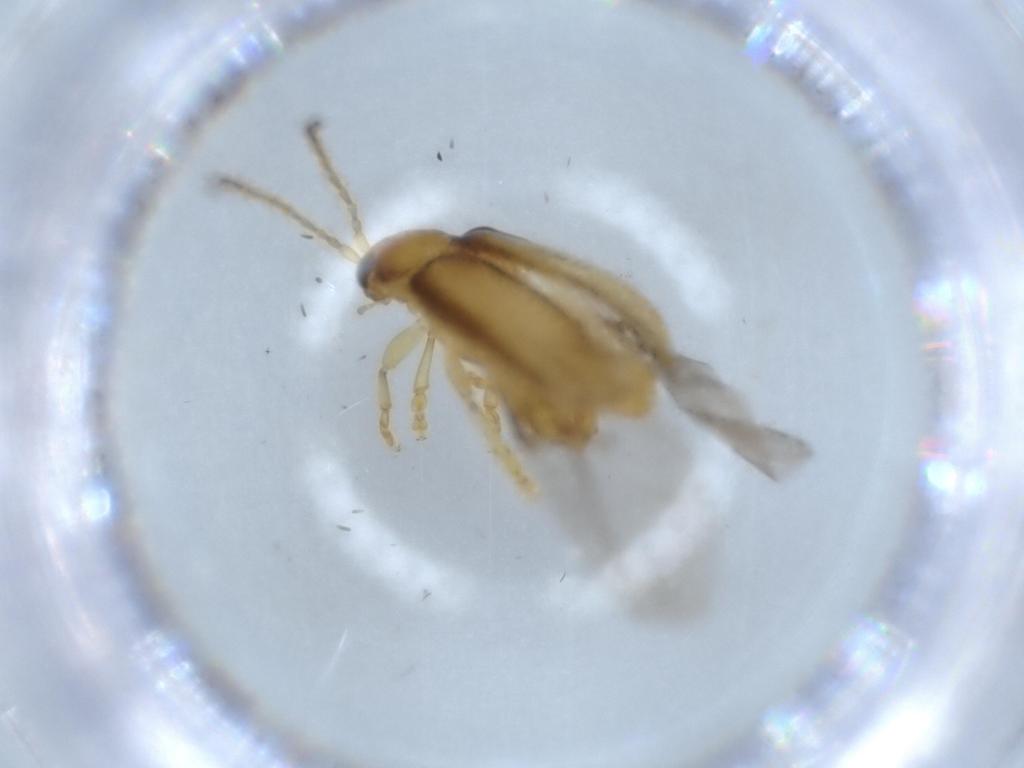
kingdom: Animalia
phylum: Arthropoda
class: Insecta
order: Coleoptera
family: Chrysomelidae
